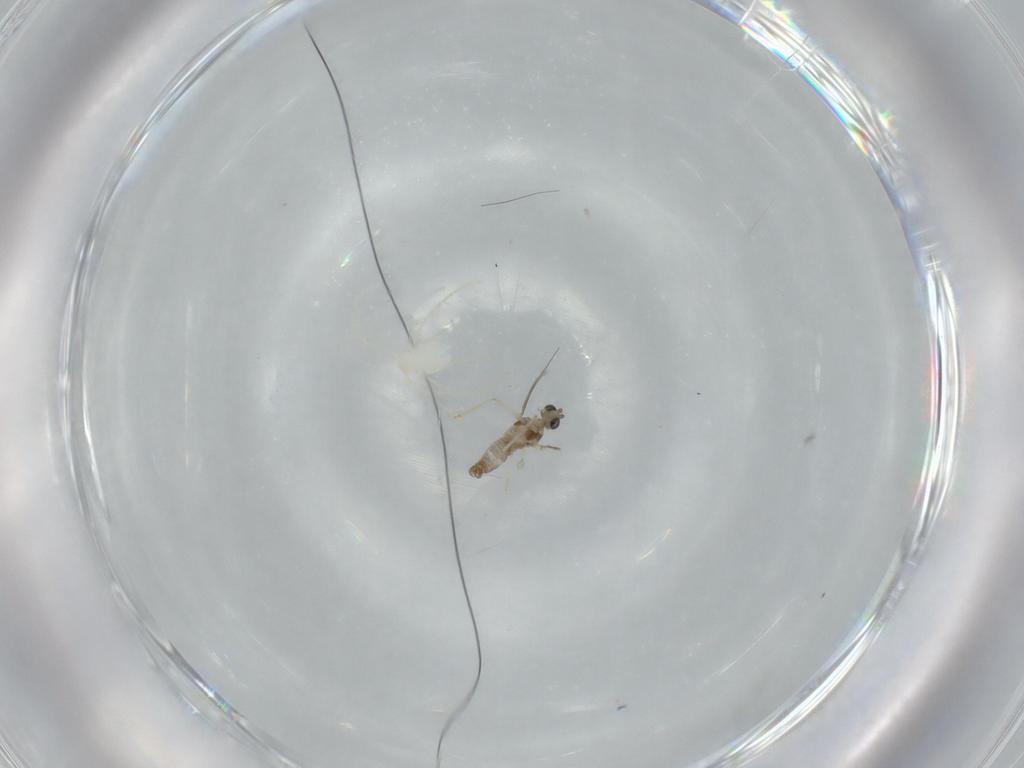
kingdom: Animalia
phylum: Arthropoda
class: Insecta
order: Diptera
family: Cecidomyiidae
